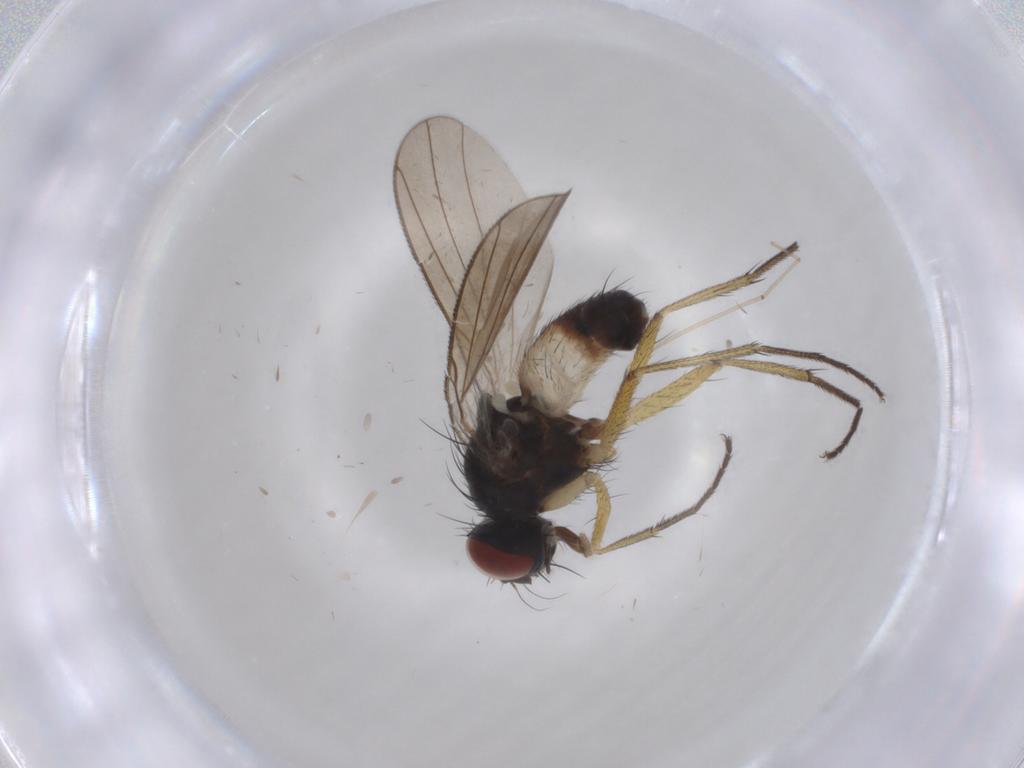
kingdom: Animalia
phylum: Arthropoda
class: Insecta
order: Diptera
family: Muscidae
